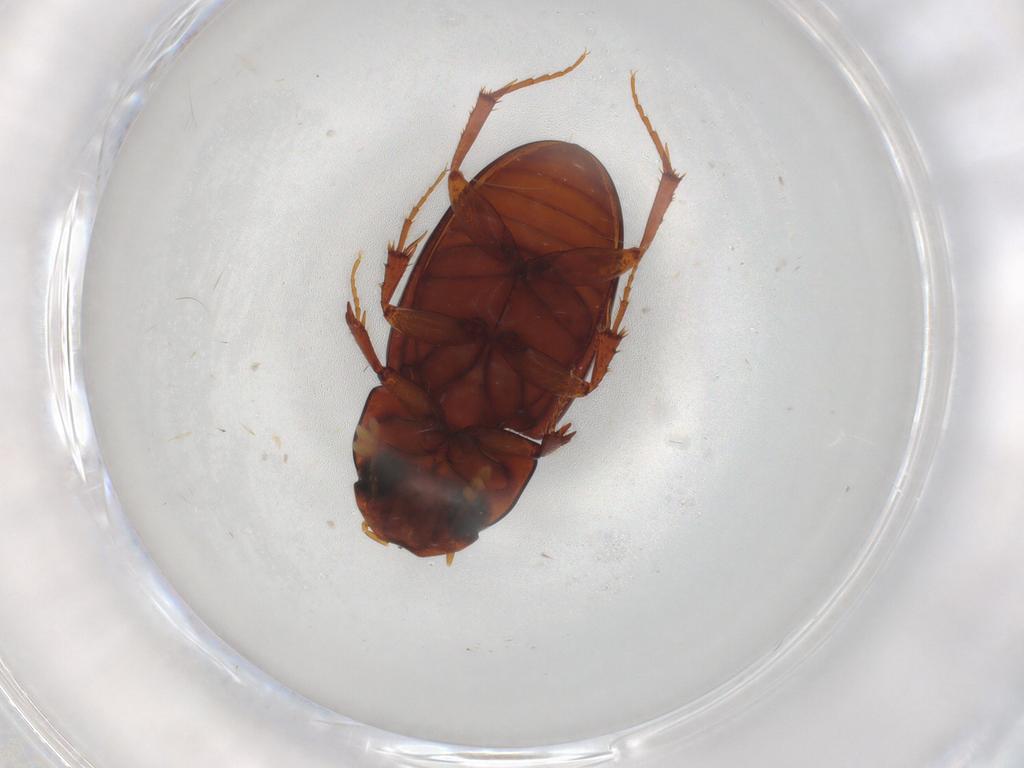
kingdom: Animalia
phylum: Arthropoda
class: Insecta
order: Coleoptera
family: Scarabaeidae
